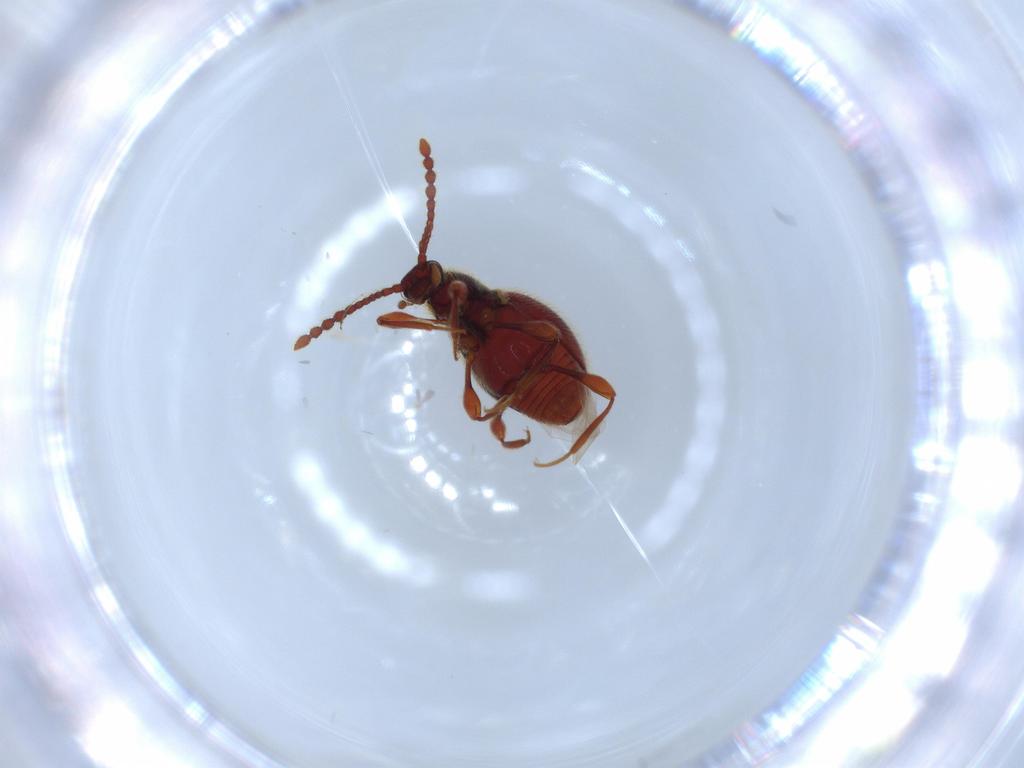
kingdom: Animalia
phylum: Arthropoda
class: Insecta
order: Coleoptera
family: Staphylinidae
